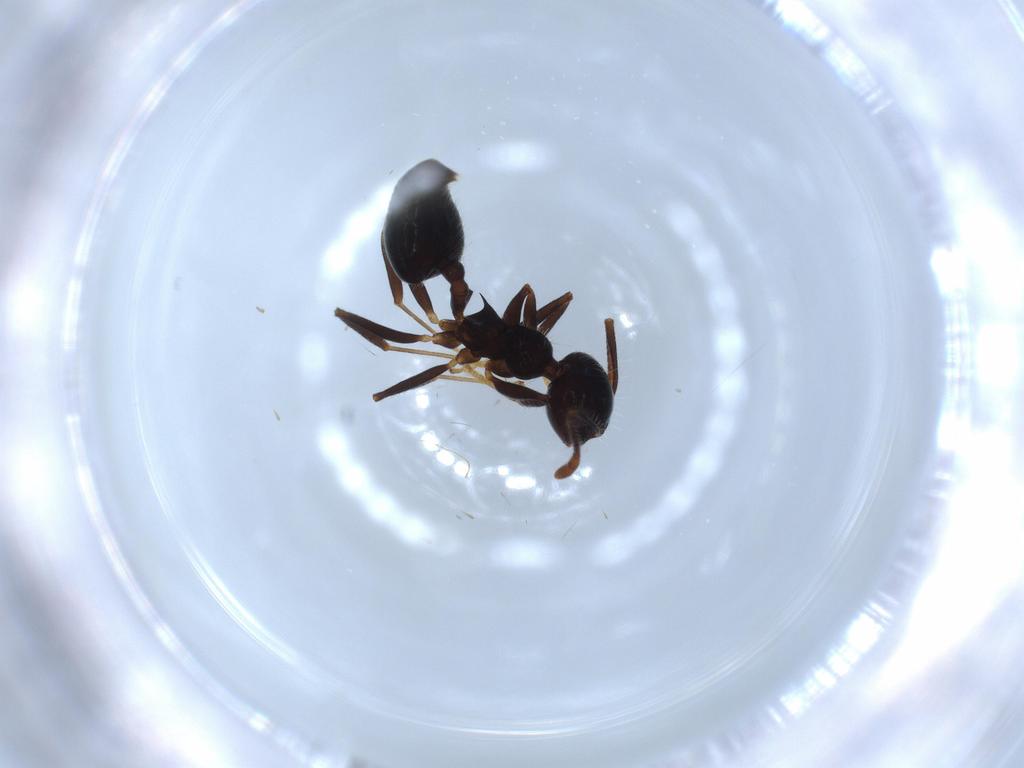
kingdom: Animalia
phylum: Arthropoda
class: Insecta
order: Hymenoptera
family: Formicidae
